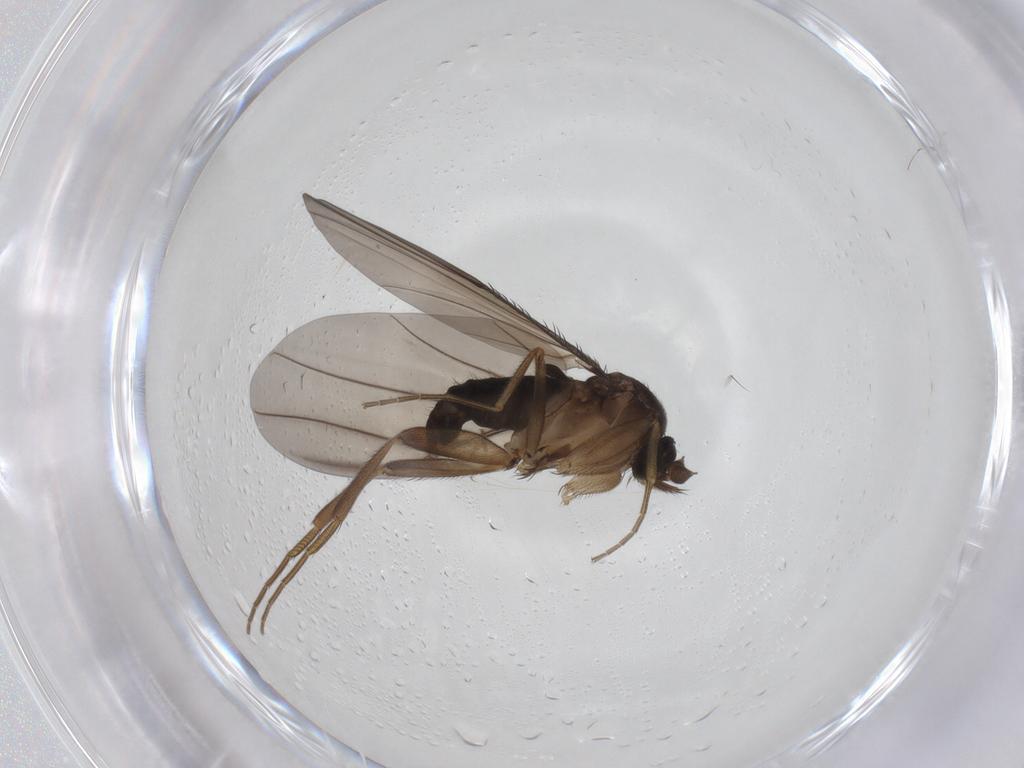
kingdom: Animalia
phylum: Arthropoda
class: Insecta
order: Diptera
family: Phoridae
